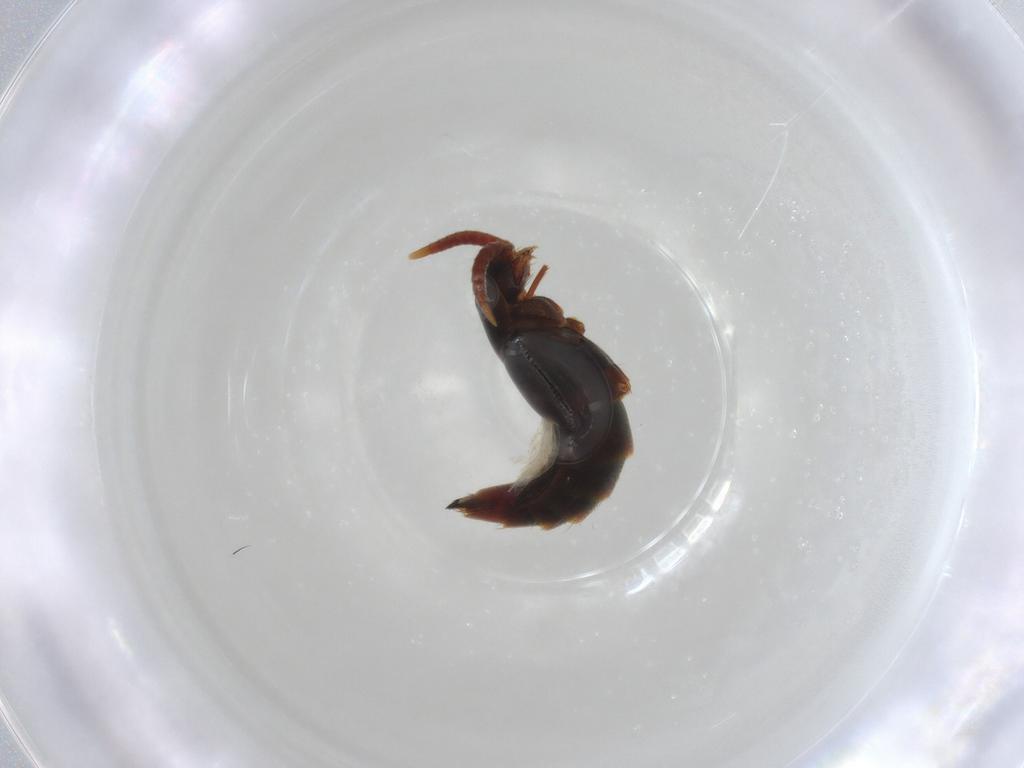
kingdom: Animalia
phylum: Arthropoda
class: Insecta
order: Coleoptera
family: Staphylinidae
